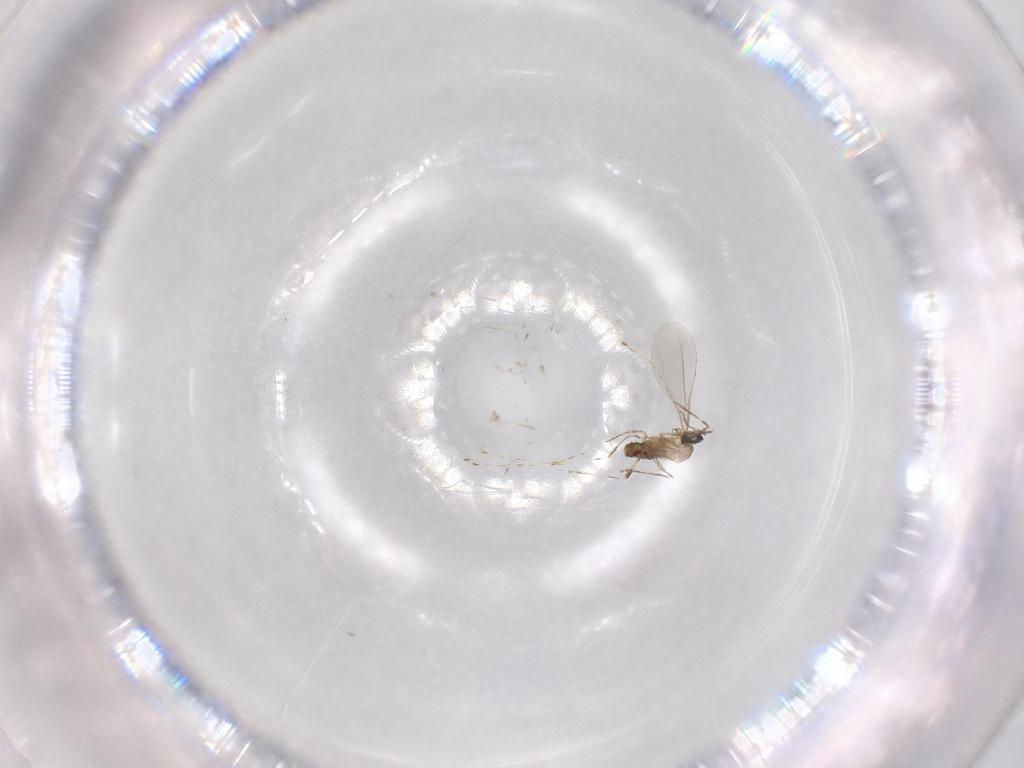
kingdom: Animalia
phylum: Arthropoda
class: Insecta
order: Diptera
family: Cecidomyiidae
